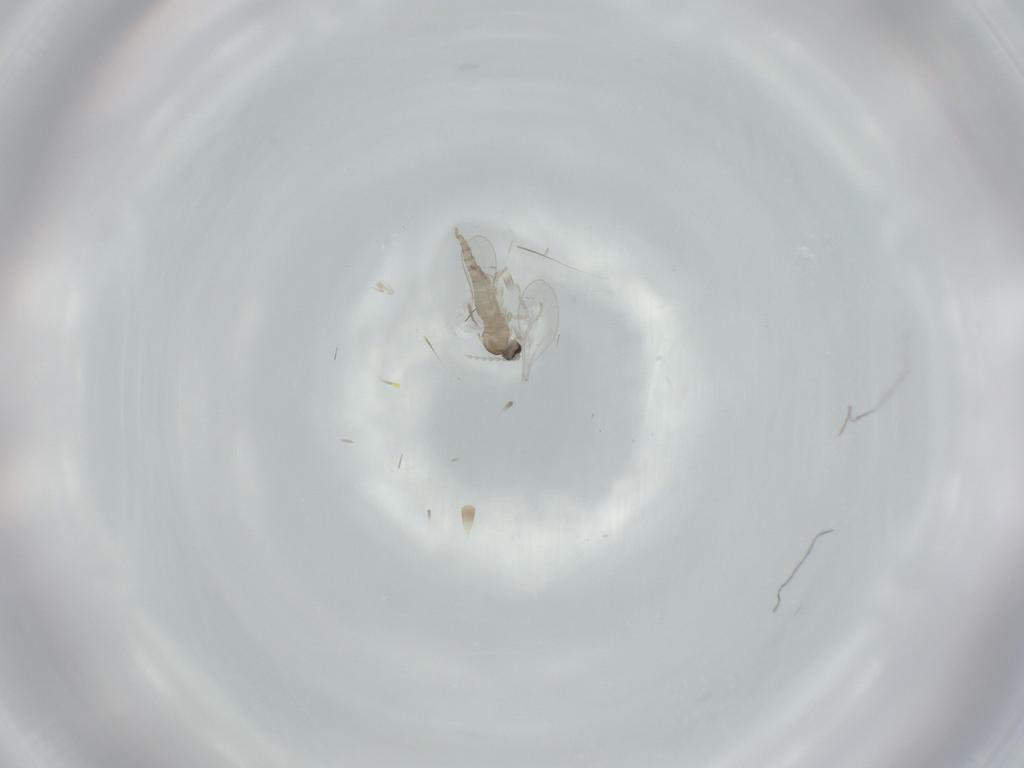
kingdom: Animalia
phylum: Arthropoda
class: Insecta
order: Diptera
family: Cecidomyiidae
